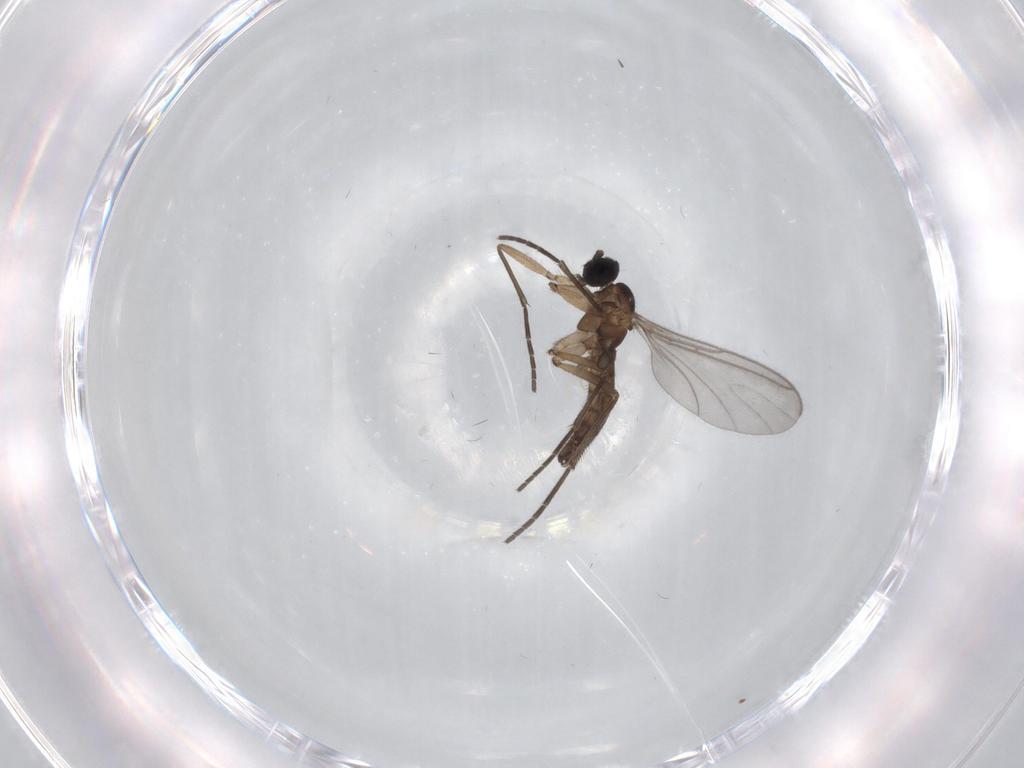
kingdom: Animalia
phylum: Arthropoda
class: Insecta
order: Diptera
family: Sciaridae
